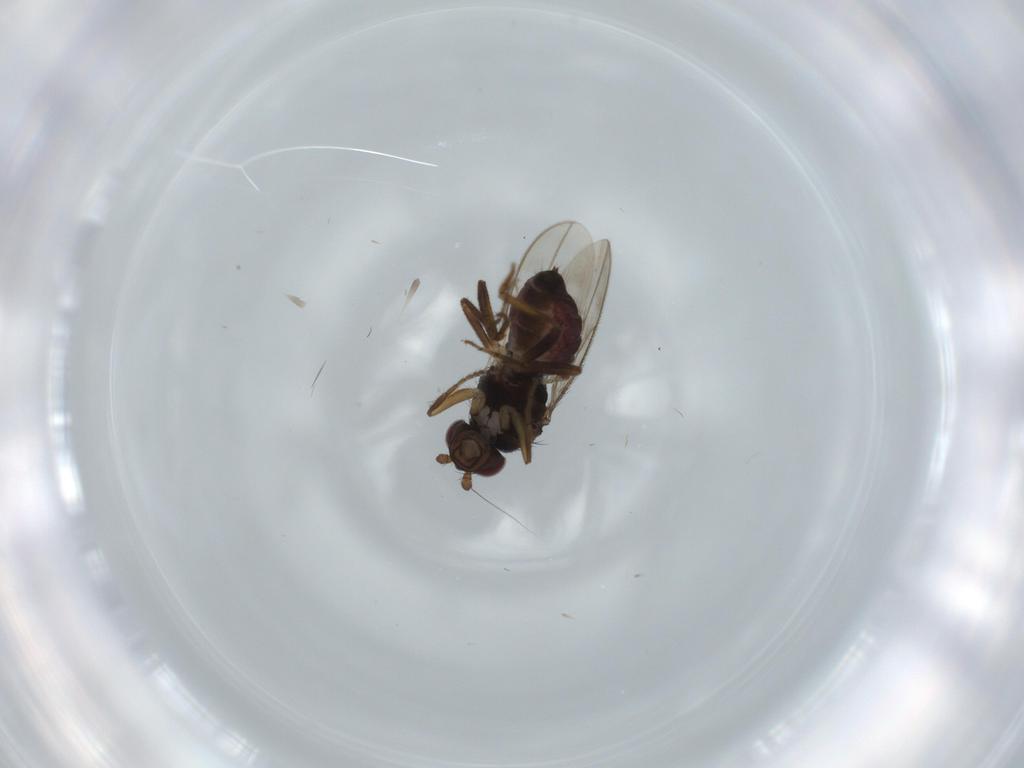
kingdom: Animalia
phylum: Arthropoda
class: Insecta
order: Diptera
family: Sphaeroceridae
